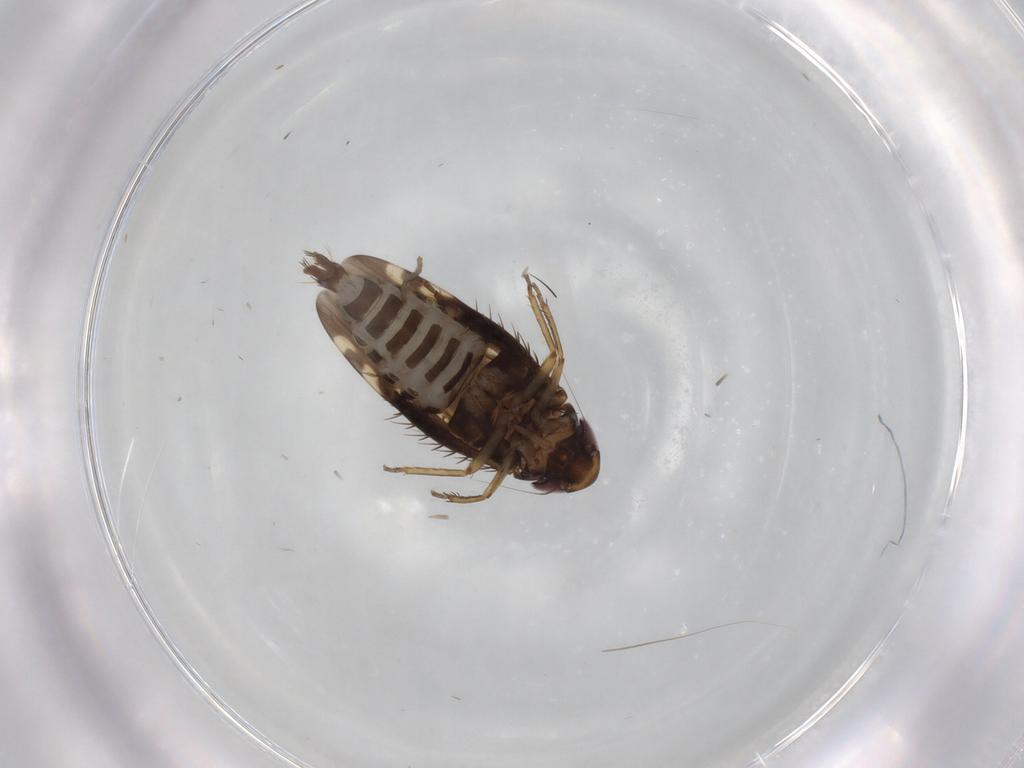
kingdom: Animalia
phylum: Arthropoda
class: Insecta
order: Hemiptera
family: Cicadellidae
